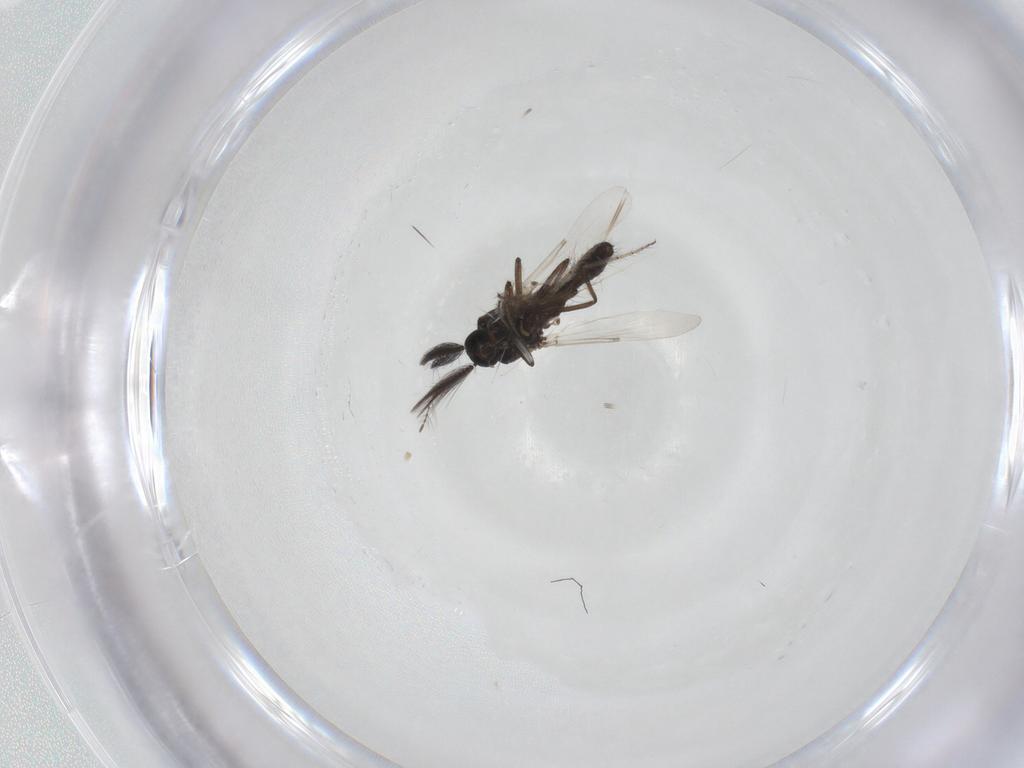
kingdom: Animalia
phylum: Arthropoda
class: Insecta
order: Diptera
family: Ceratopogonidae
